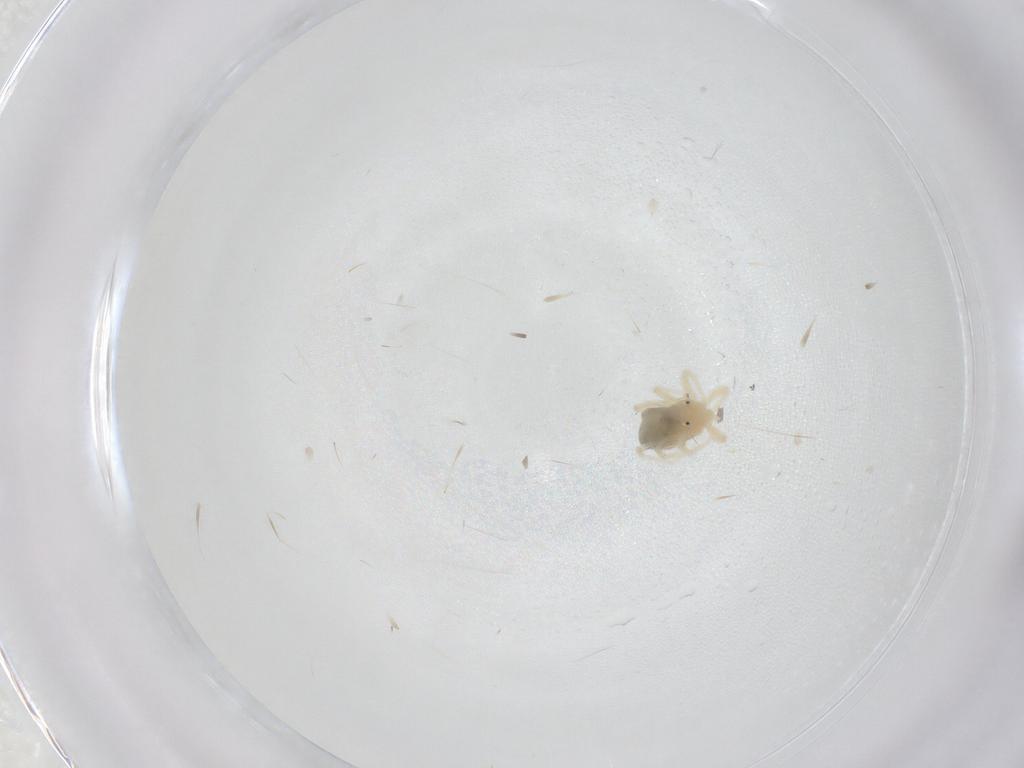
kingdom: Animalia
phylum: Arthropoda
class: Arachnida
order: Trombidiformes
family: Anystidae
